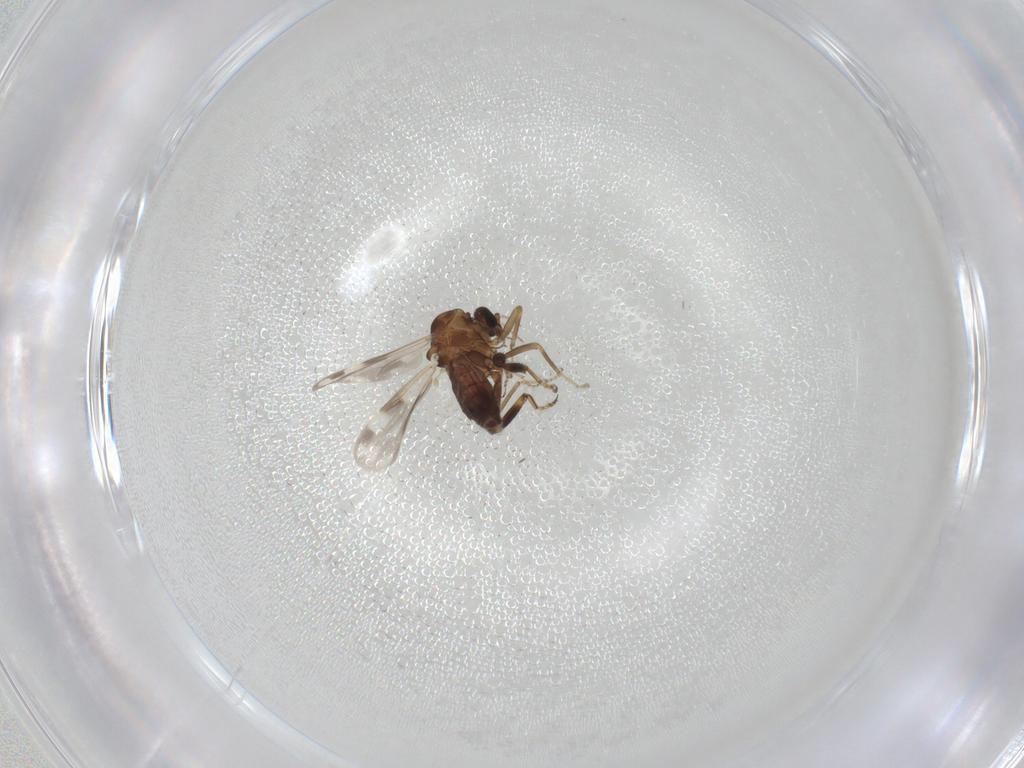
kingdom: Animalia
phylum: Arthropoda
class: Insecta
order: Diptera
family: Ceratopogonidae
